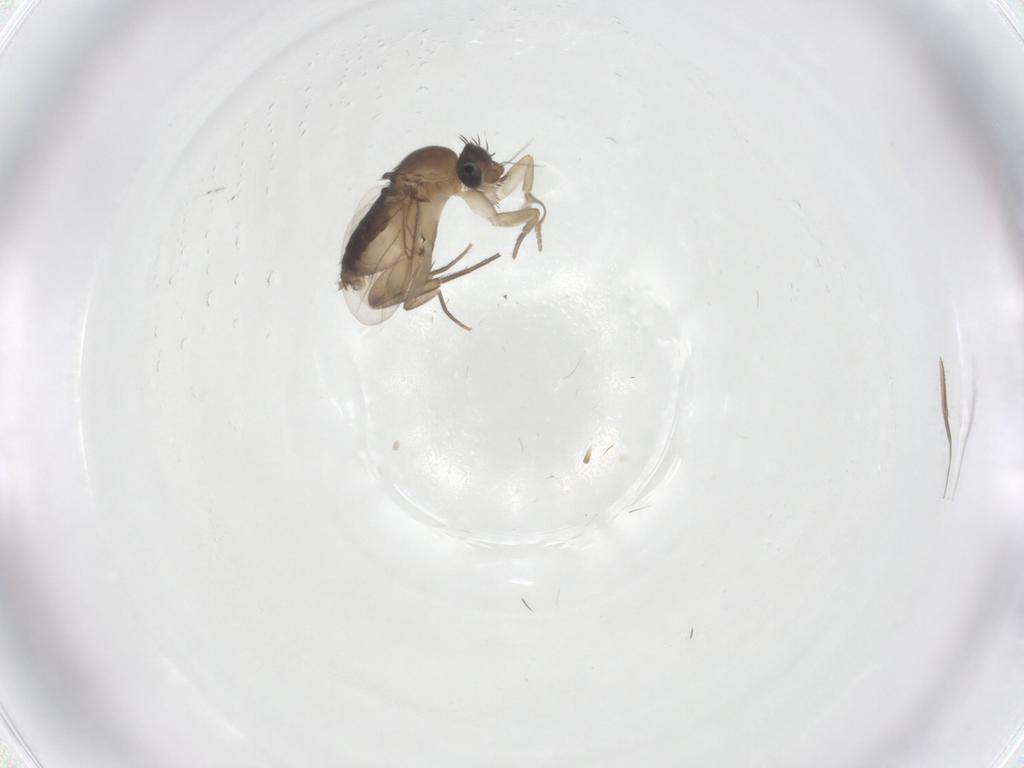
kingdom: Animalia
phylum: Arthropoda
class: Insecta
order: Diptera
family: Phoridae
